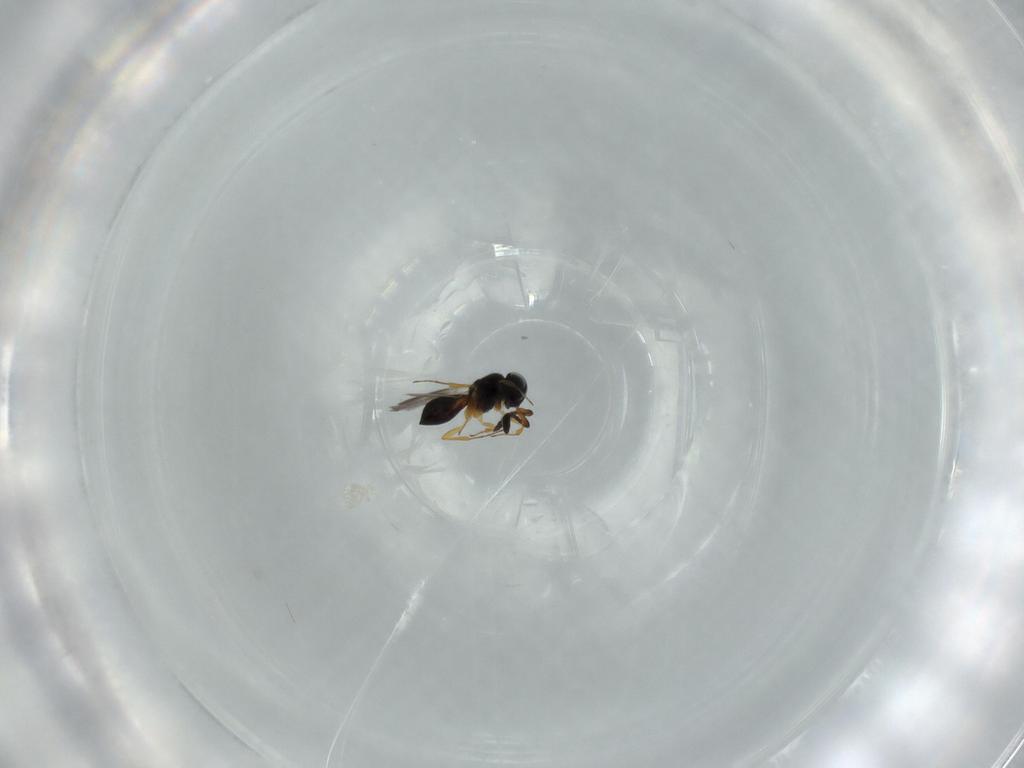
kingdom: Animalia
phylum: Arthropoda
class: Insecta
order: Hymenoptera
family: Scelionidae
